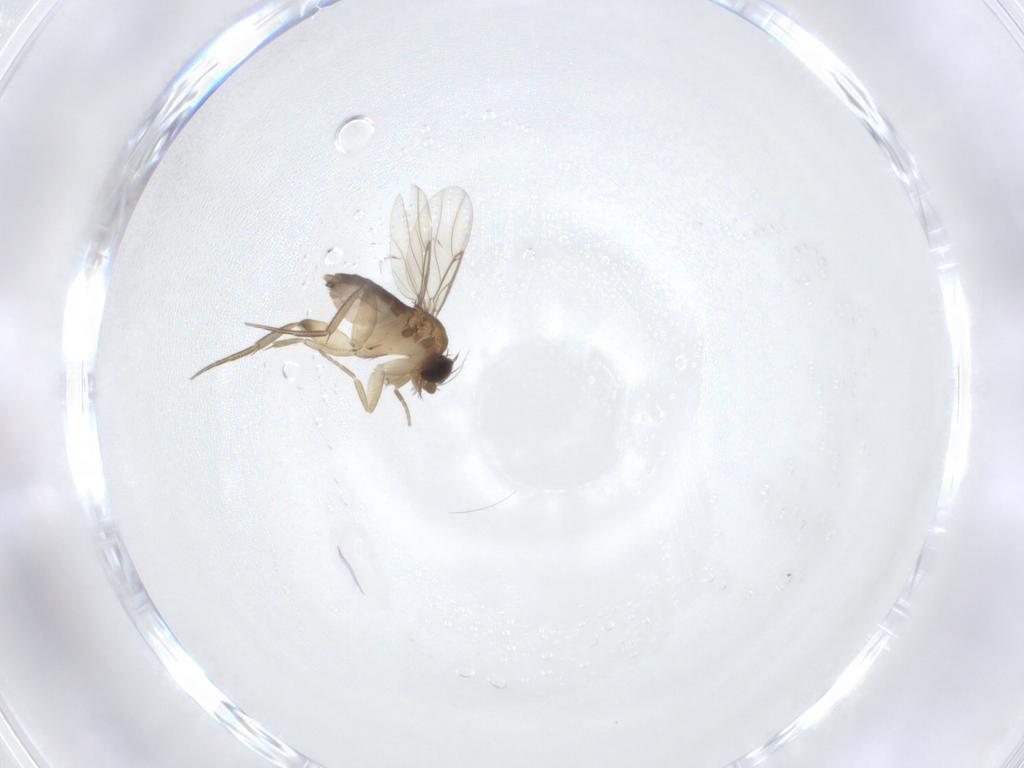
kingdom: Animalia
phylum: Arthropoda
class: Insecta
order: Diptera
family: Phoridae
